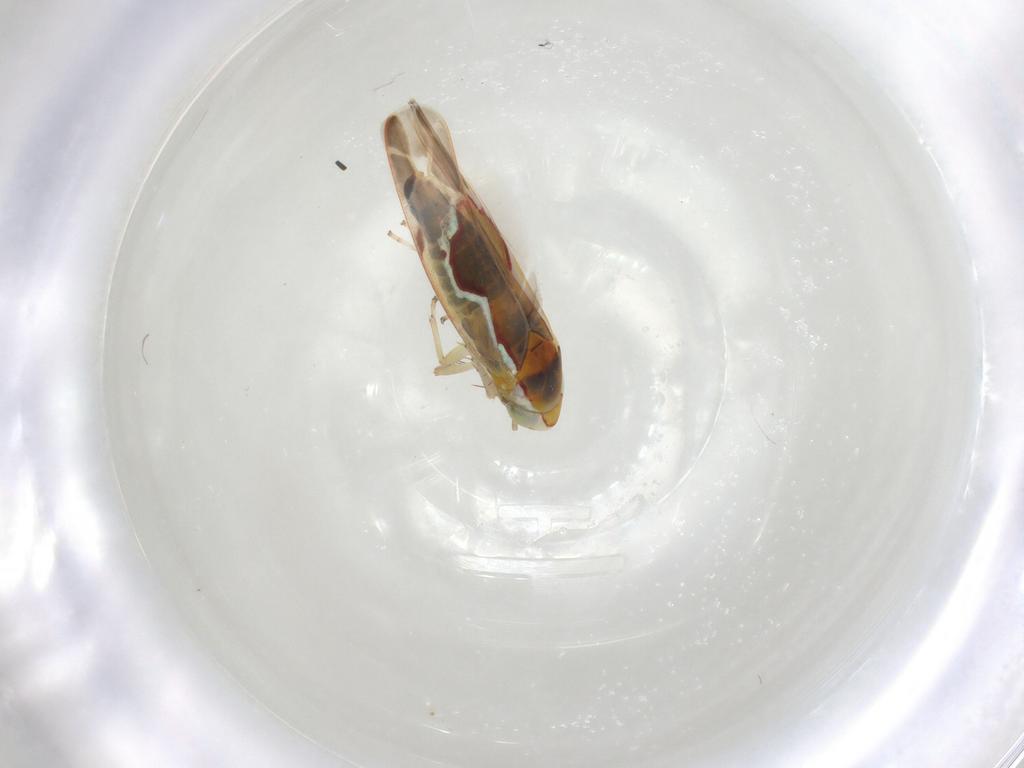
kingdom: Animalia
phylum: Arthropoda
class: Insecta
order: Hemiptera
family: Cicadellidae
